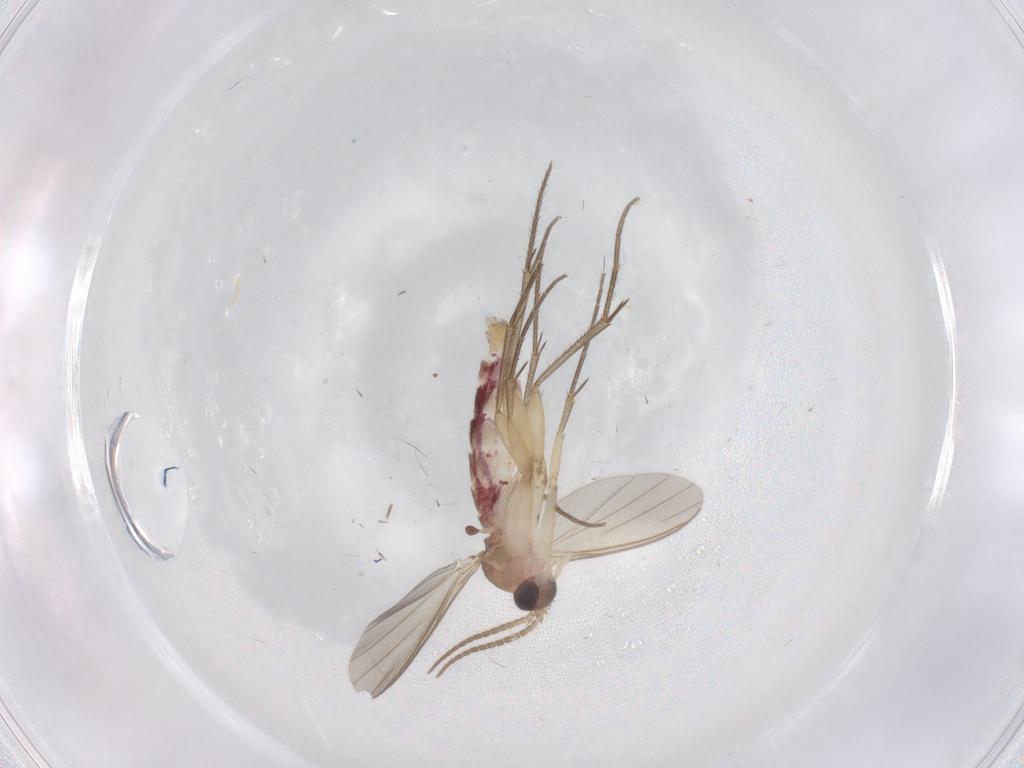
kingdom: Animalia
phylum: Arthropoda
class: Insecta
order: Diptera
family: Mycetophilidae
